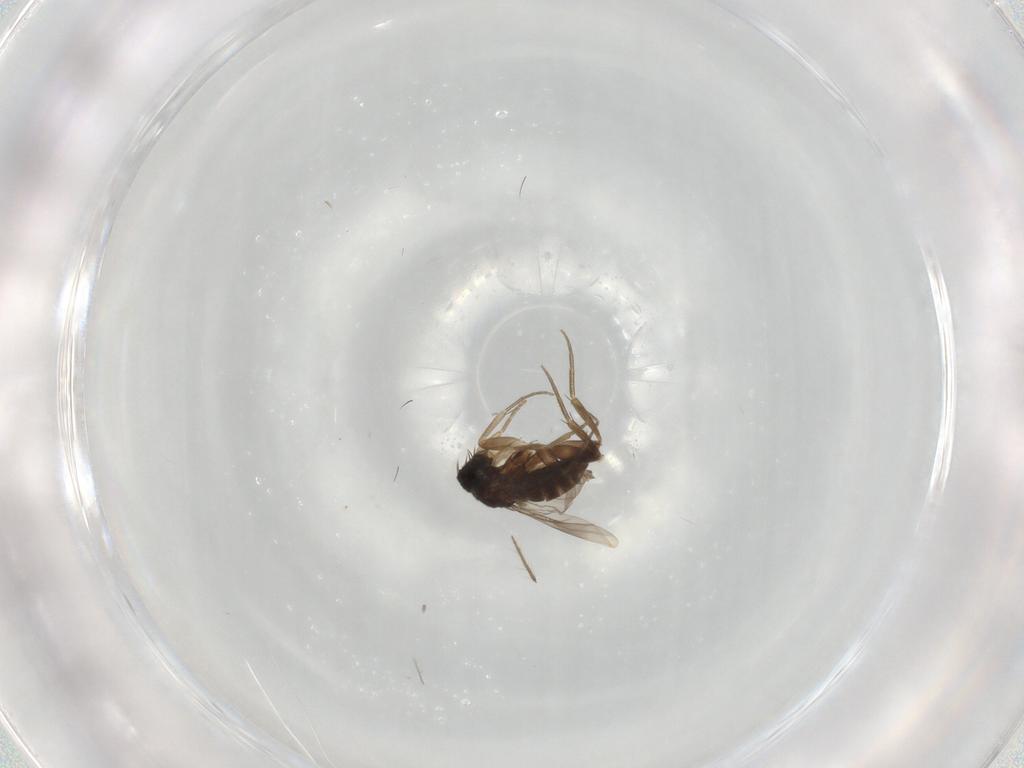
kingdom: Animalia
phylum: Arthropoda
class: Insecta
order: Diptera
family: Phoridae
